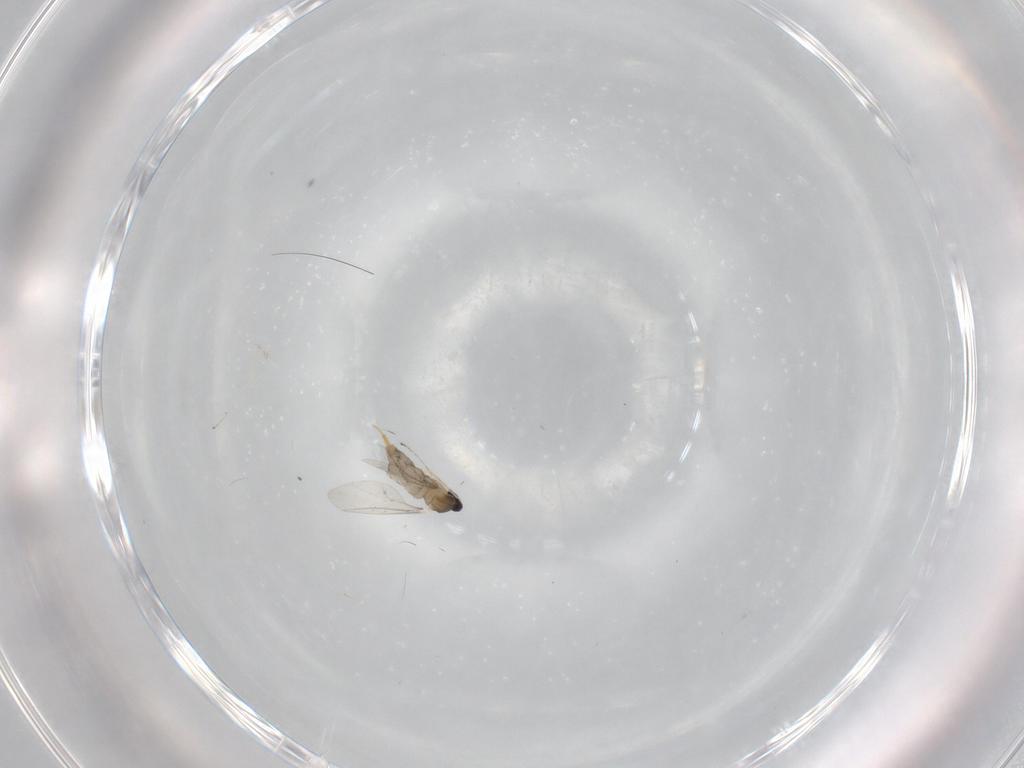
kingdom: Animalia
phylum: Arthropoda
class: Insecta
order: Diptera
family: Cecidomyiidae
